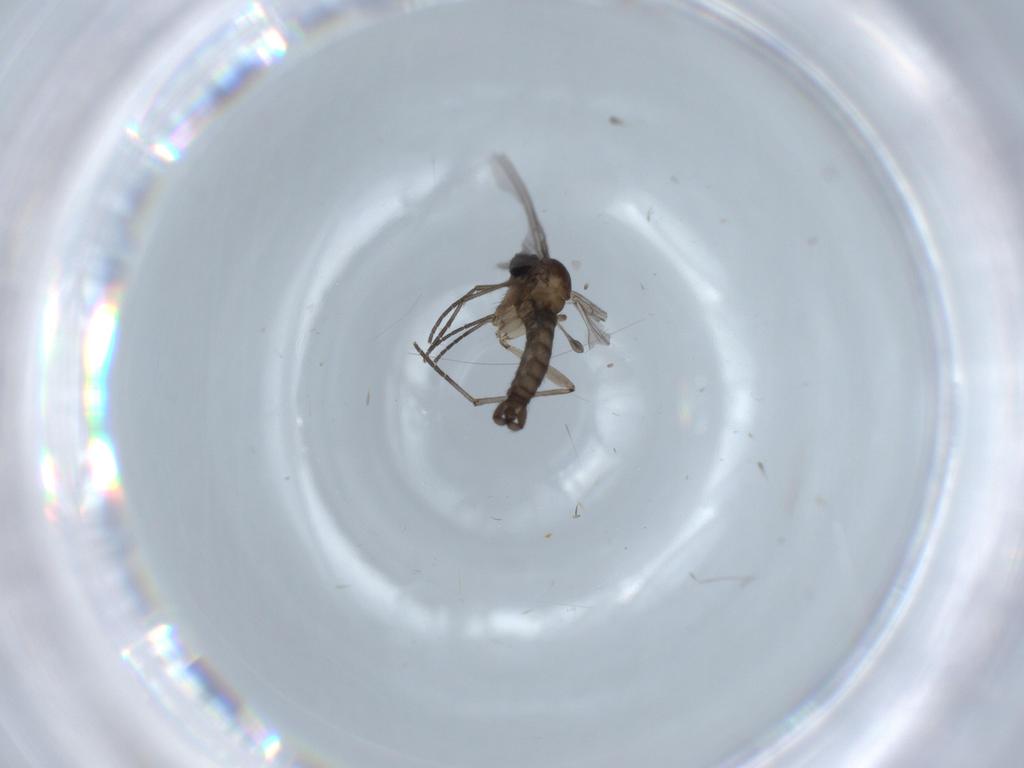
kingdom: Animalia
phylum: Arthropoda
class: Insecta
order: Diptera
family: Sciaridae
